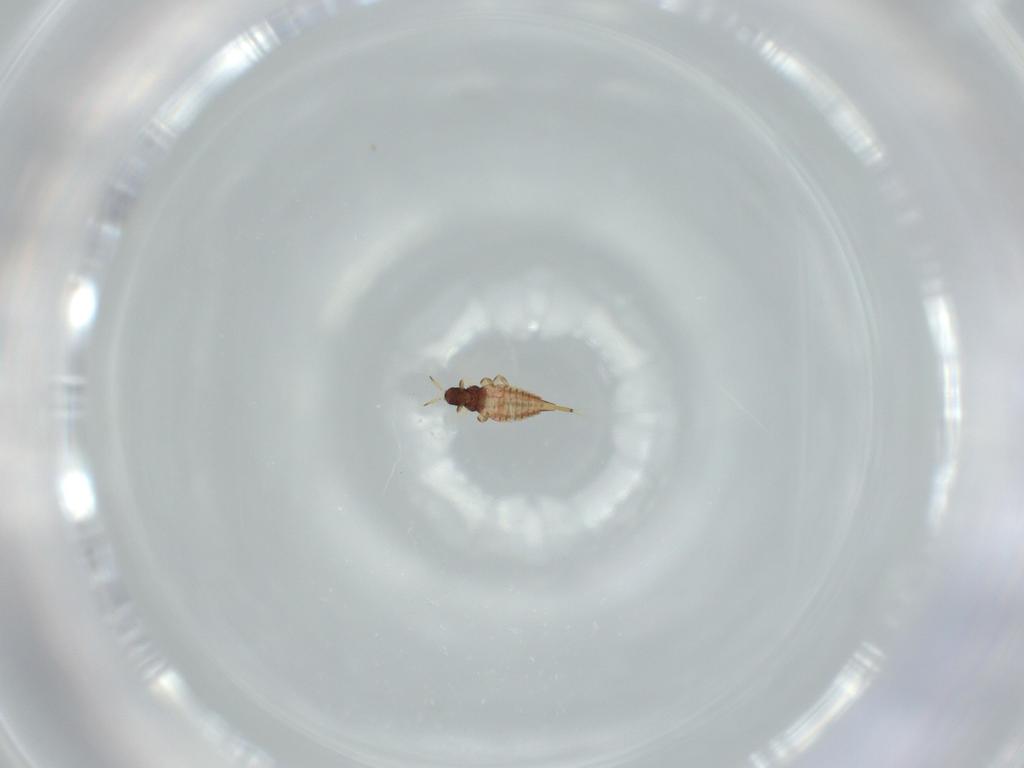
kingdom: Animalia
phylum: Arthropoda
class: Insecta
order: Thysanoptera
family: Phlaeothripidae
